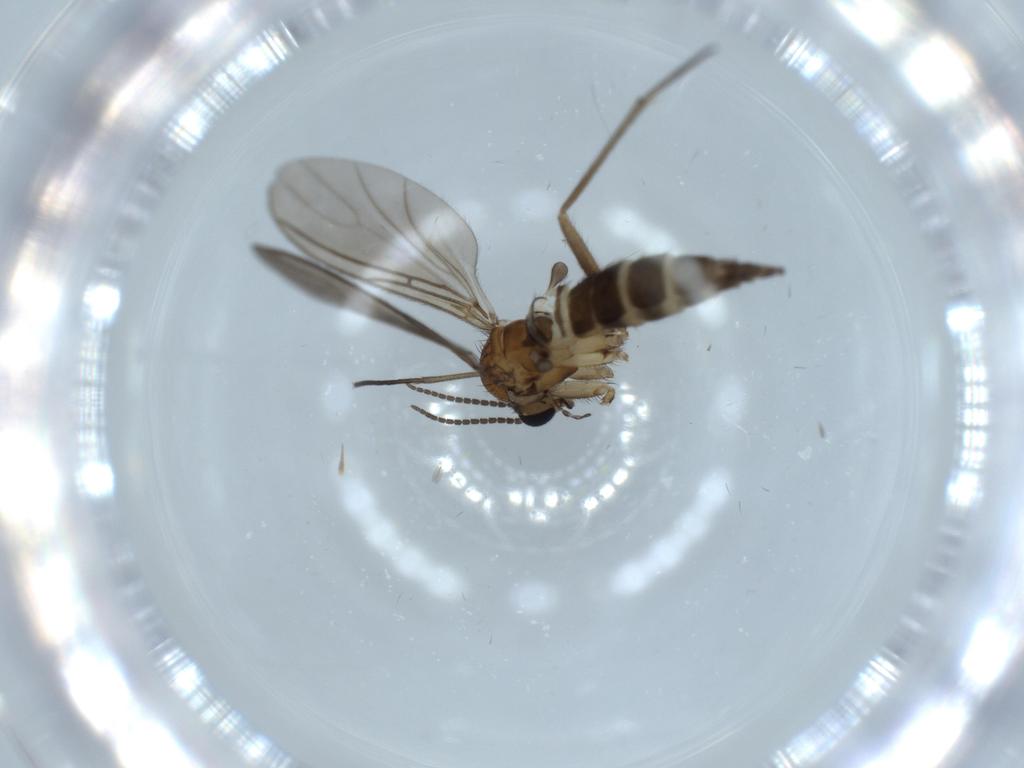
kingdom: Animalia
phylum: Arthropoda
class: Insecta
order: Diptera
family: Sciaridae
